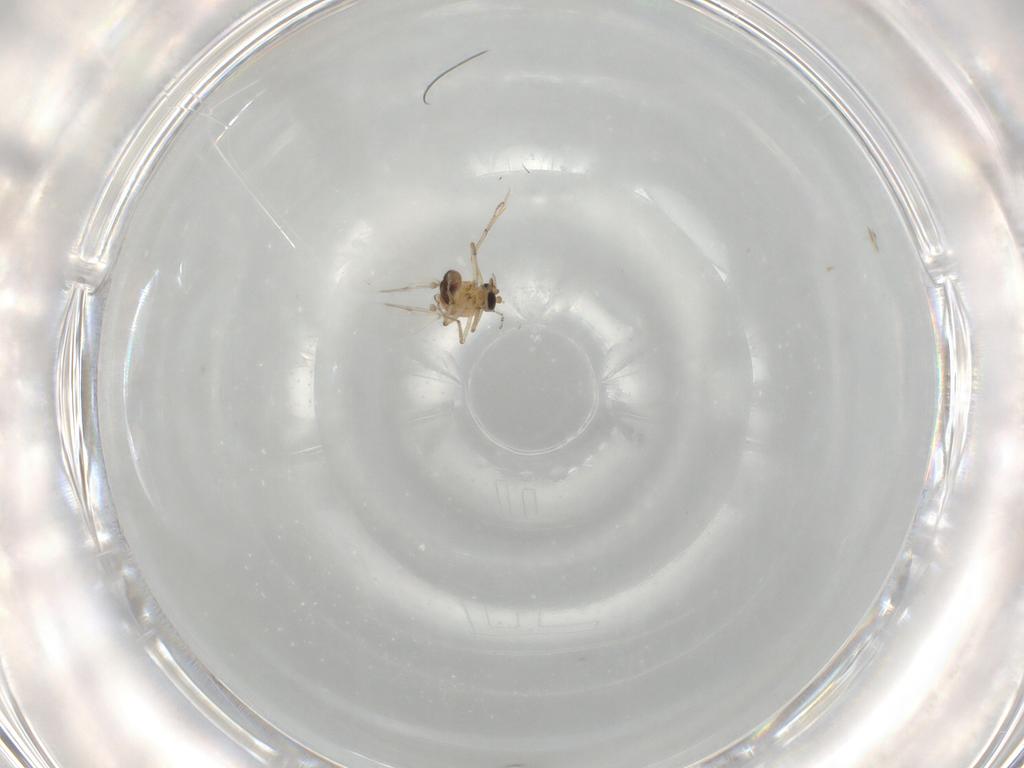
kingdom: Animalia
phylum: Arthropoda
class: Insecta
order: Diptera
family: Ceratopogonidae
